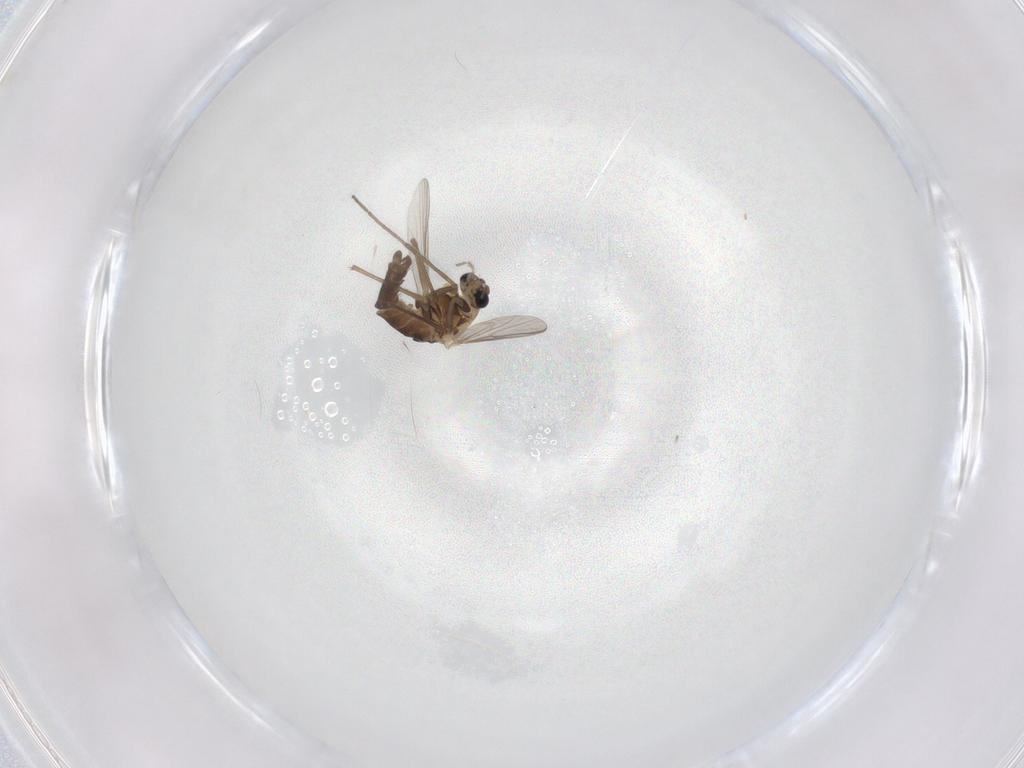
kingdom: Animalia
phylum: Arthropoda
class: Insecta
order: Diptera
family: Chironomidae
